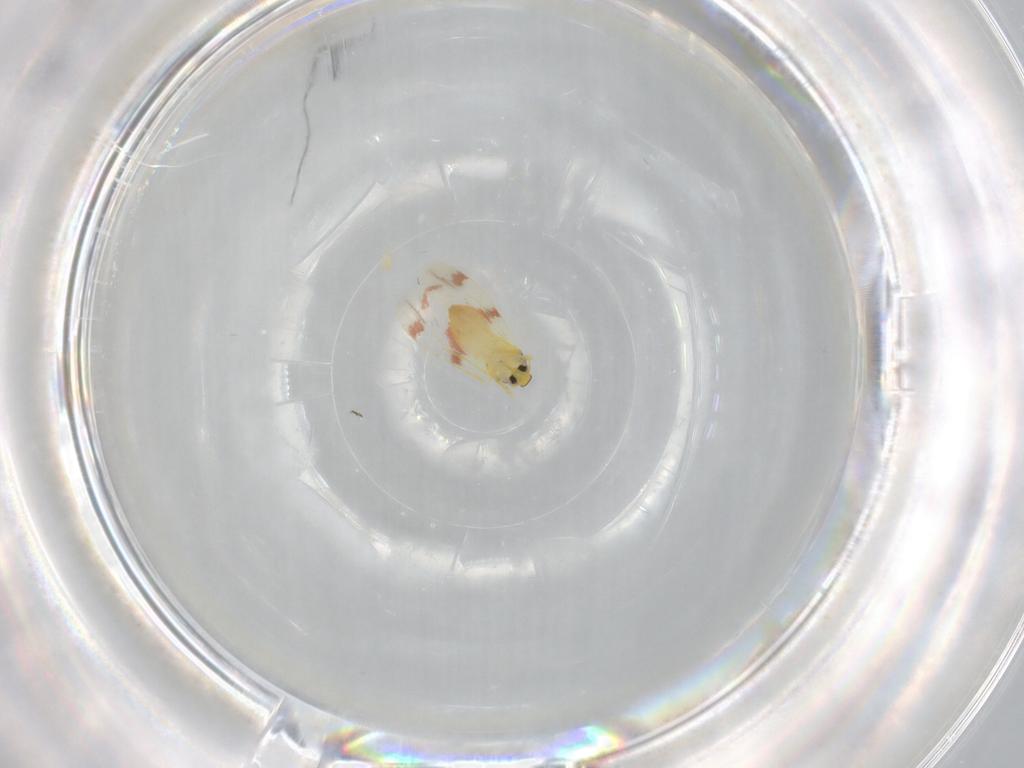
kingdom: Animalia
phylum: Arthropoda
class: Insecta
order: Hemiptera
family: Aleyrodidae
